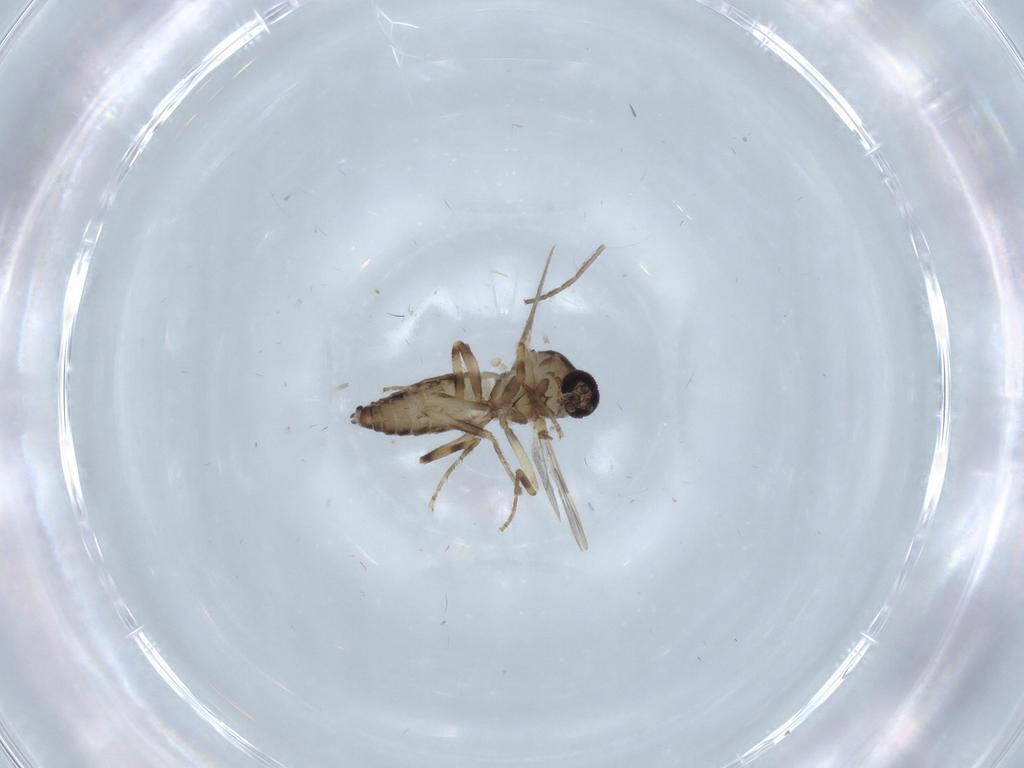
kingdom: Animalia
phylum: Arthropoda
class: Insecta
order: Diptera
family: Ceratopogonidae
